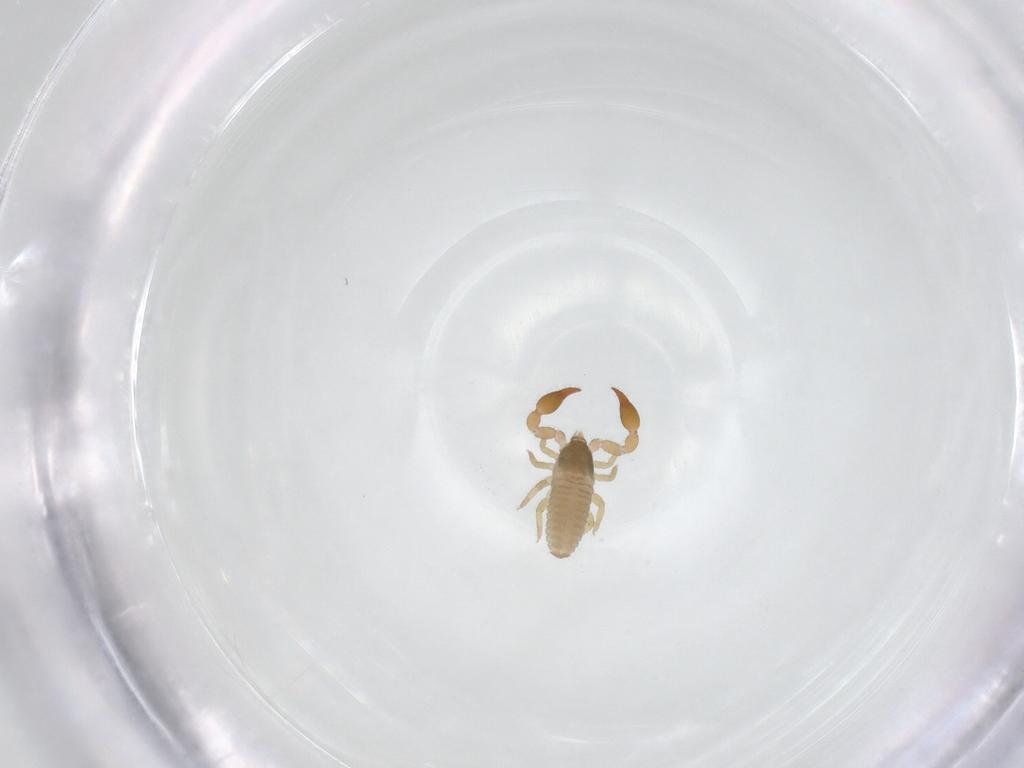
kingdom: Animalia
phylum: Arthropoda
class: Arachnida
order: Pseudoscorpiones
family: Chernetidae
